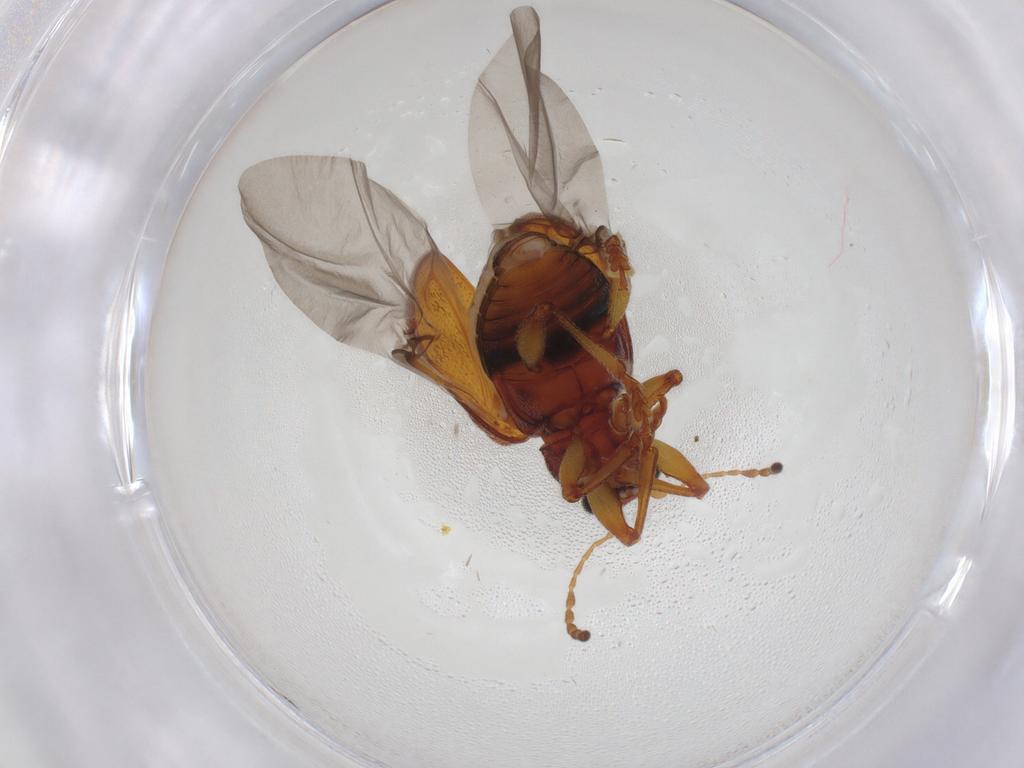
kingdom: Animalia
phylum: Arthropoda
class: Insecta
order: Coleoptera
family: Chrysomelidae
